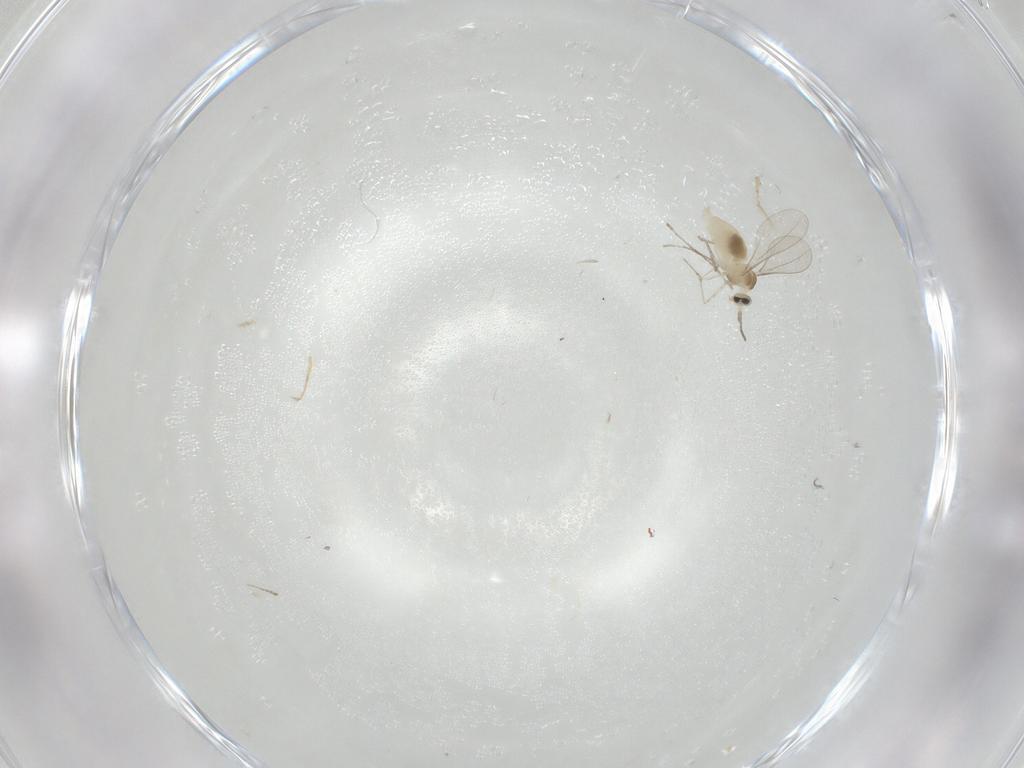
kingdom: Animalia
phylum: Arthropoda
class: Insecta
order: Diptera
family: Cecidomyiidae
